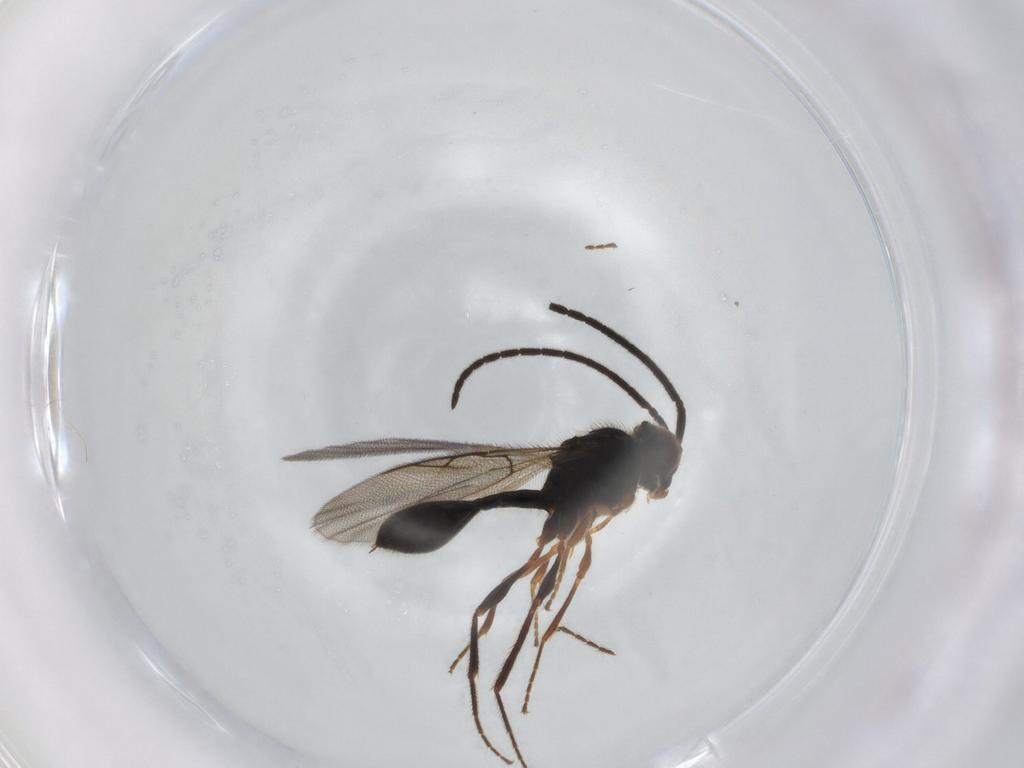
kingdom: Animalia
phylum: Arthropoda
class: Insecta
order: Hymenoptera
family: Diapriidae
